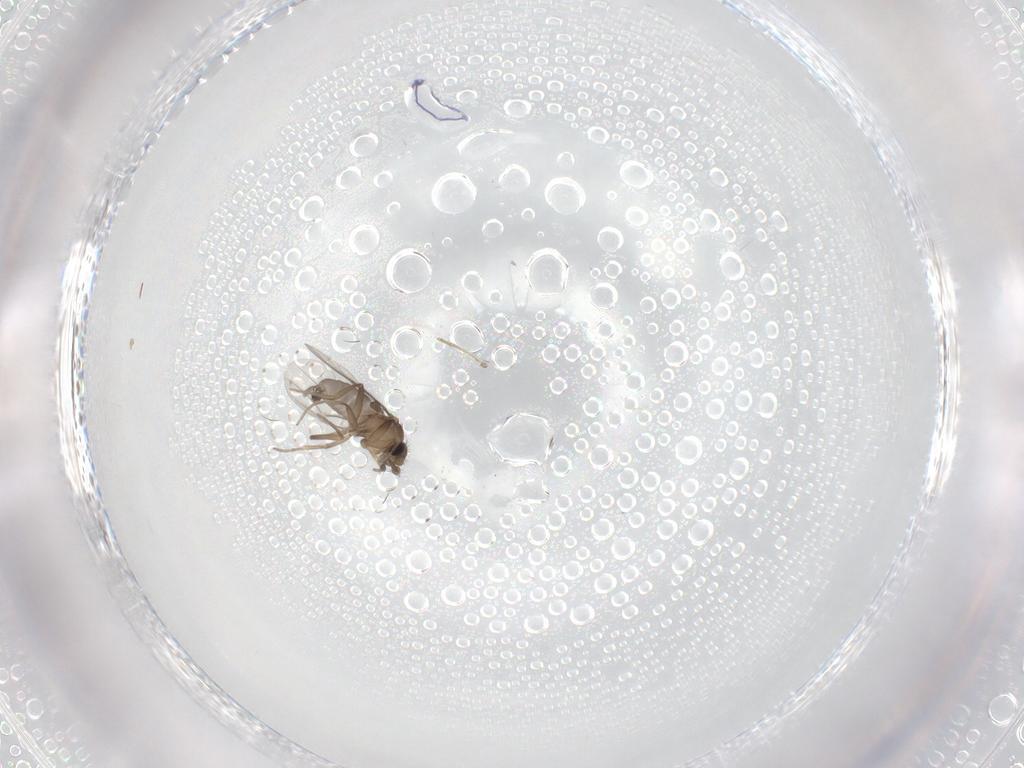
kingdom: Animalia
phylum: Arthropoda
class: Insecta
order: Diptera
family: Cecidomyiidae
